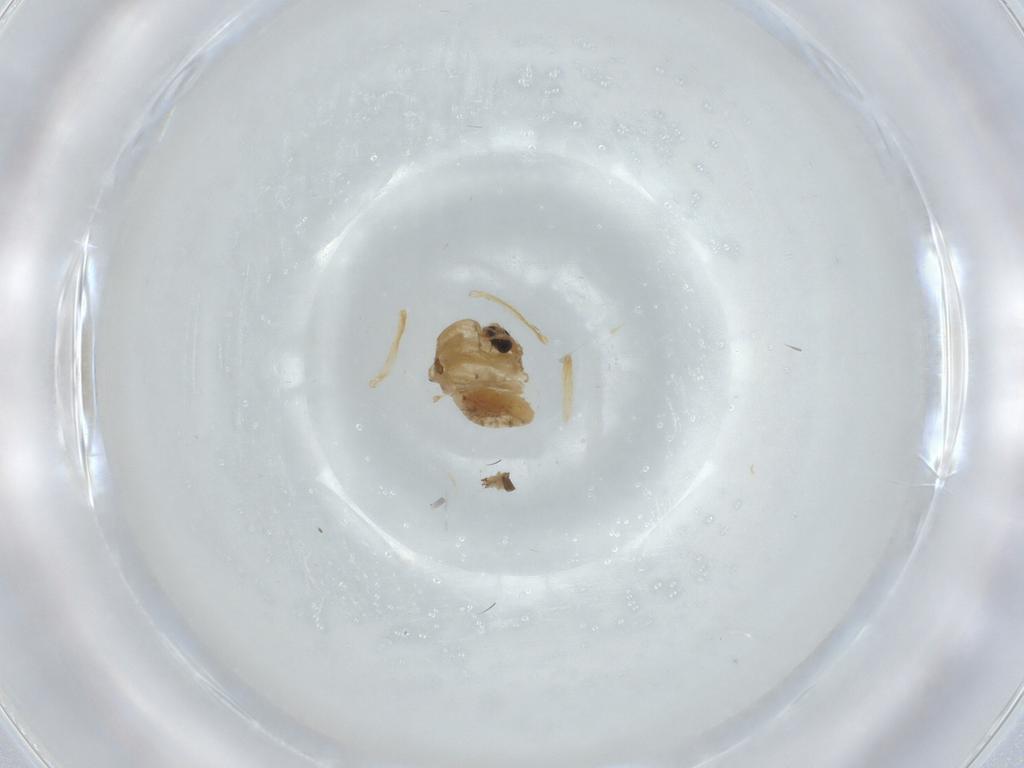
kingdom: Animalia
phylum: Arthropoda
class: Insecta
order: Diptera
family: Chironomidae
